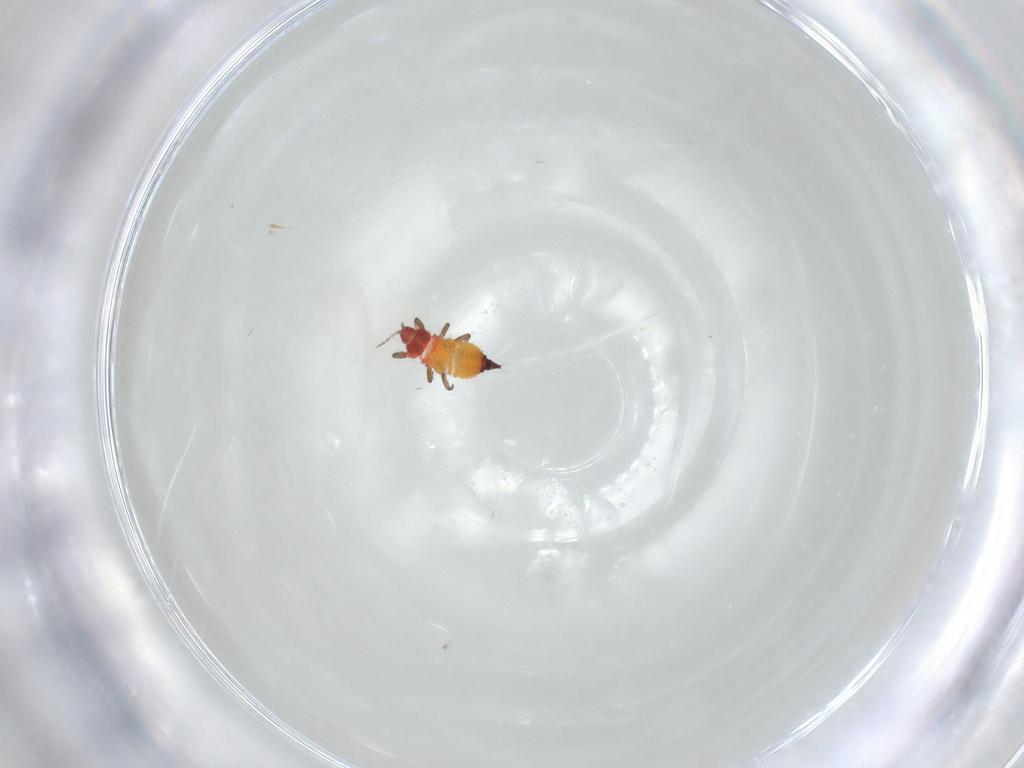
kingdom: Animalia
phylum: Arthropoda
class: Insecta
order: Thysanoptera
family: Phlaeothripidae
